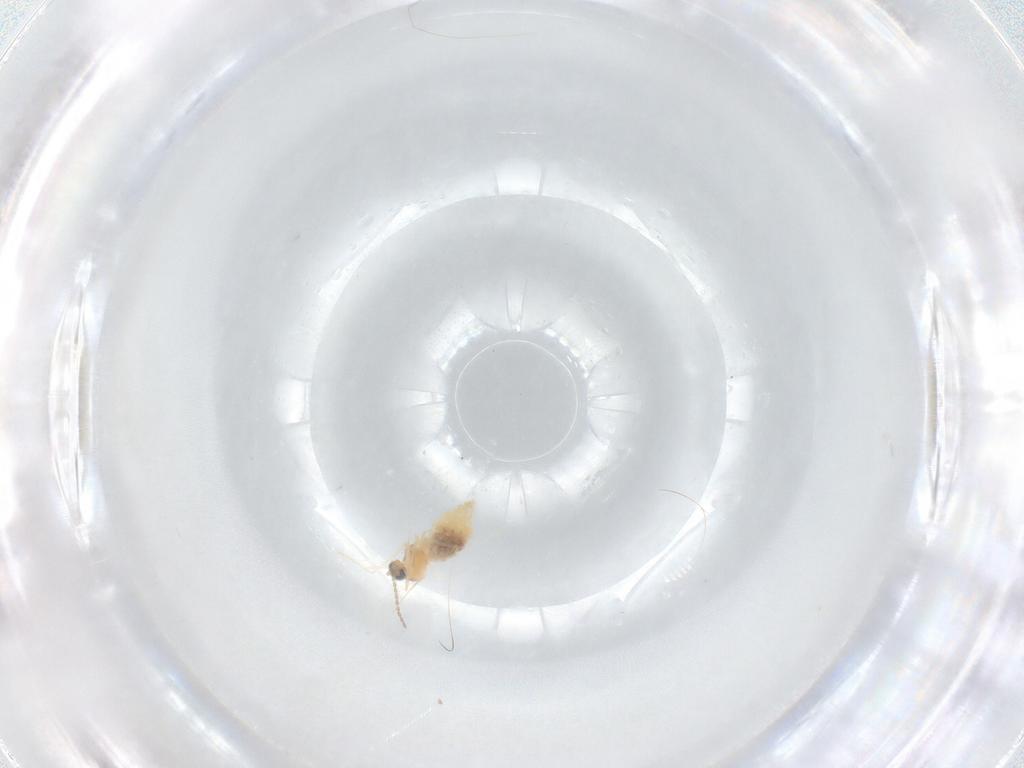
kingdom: Animalia
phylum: Arthropoda
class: Insecta
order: Diptera
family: Cecidomyiidae
